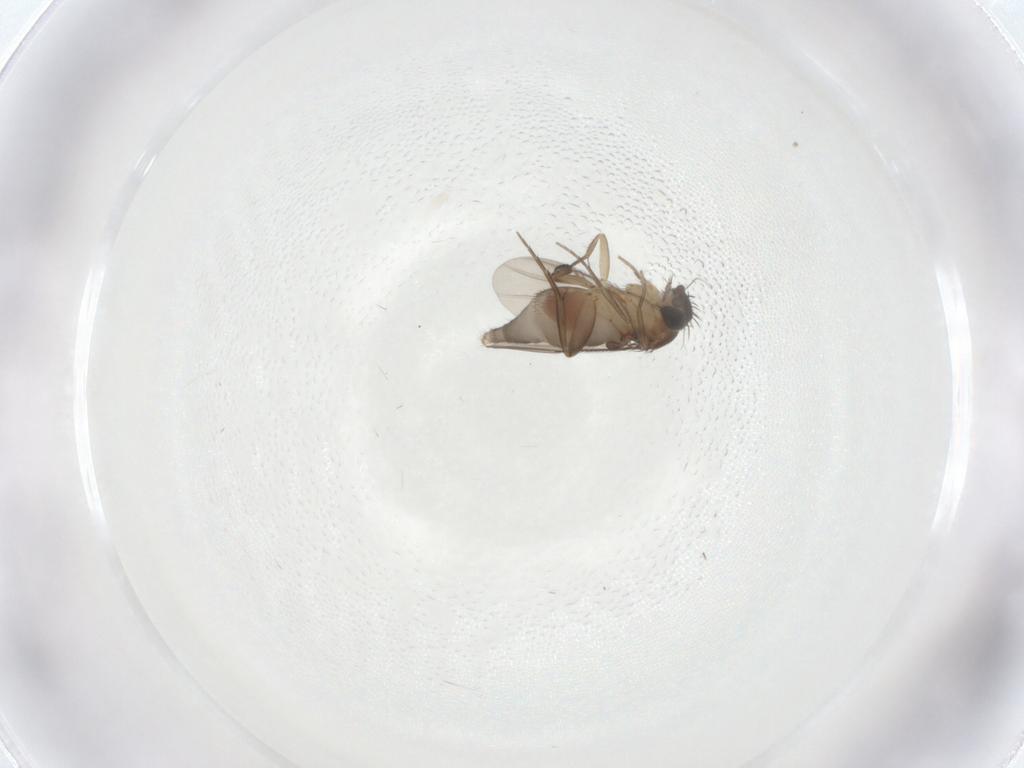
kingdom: Animalia
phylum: Arthropoda
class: Insecta
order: Diptera
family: Phoridae
